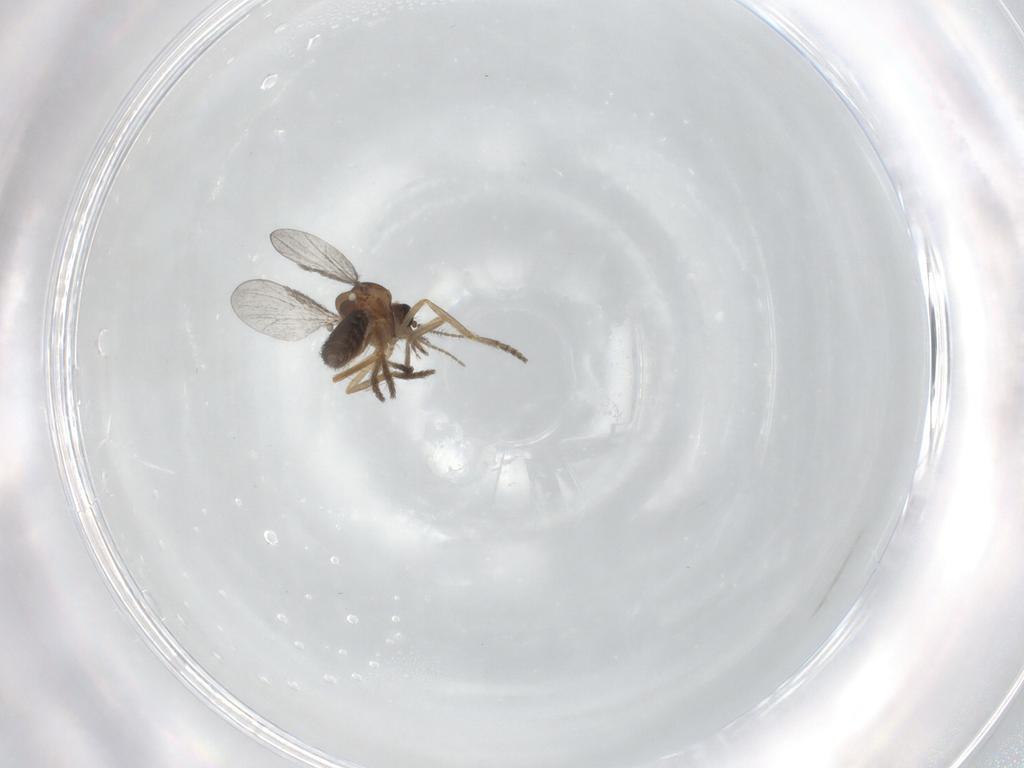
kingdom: Animalia
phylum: Arthropoda
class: Insecta
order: Diptera
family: Ceratopogonidae
